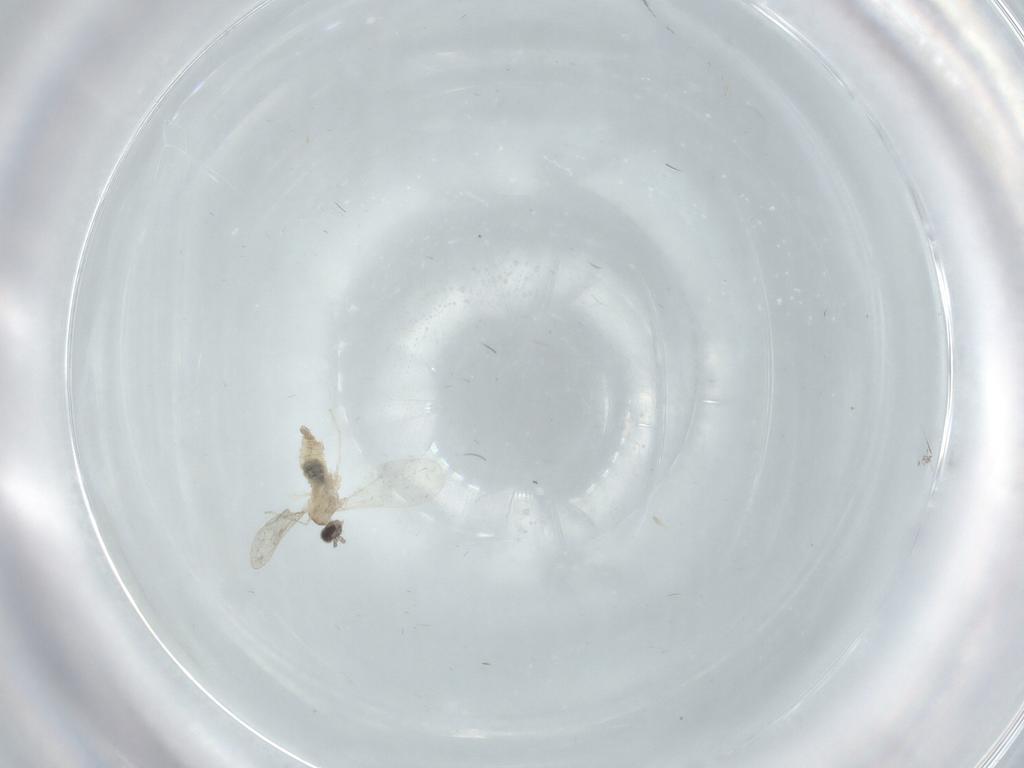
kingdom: Animalia
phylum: Arthropoda
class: Insecta
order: Diptera
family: Cecidomyiidae
